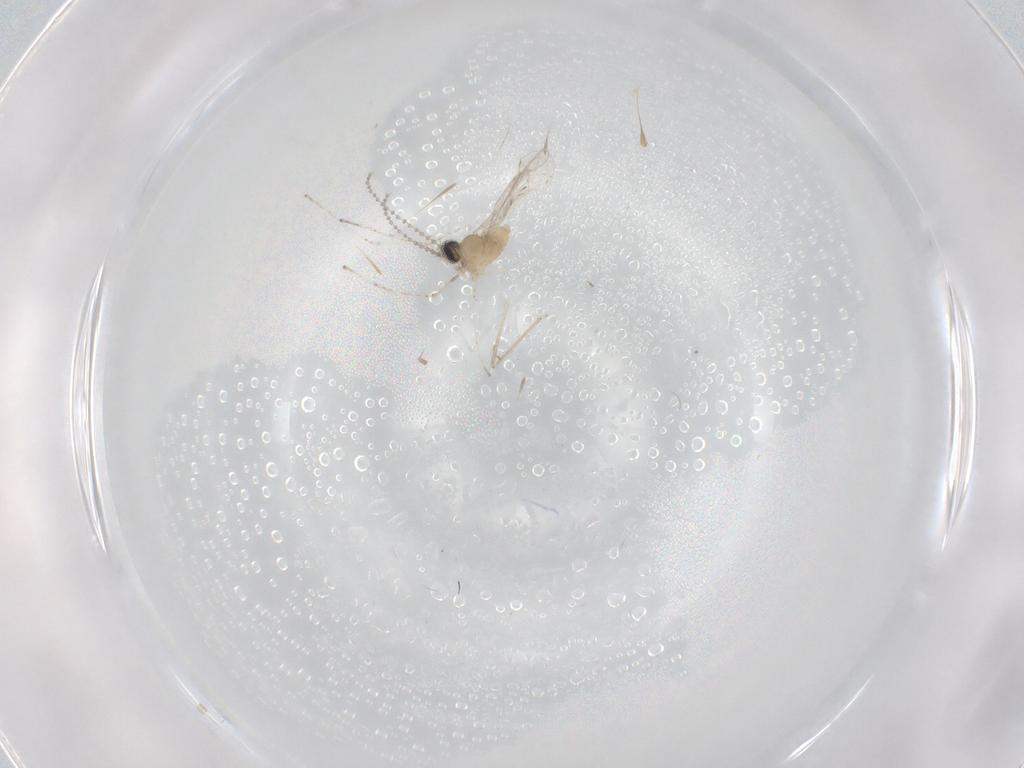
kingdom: Animalia
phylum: Arthropoda
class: Insecta
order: Diptera
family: Cecidomyiidae
